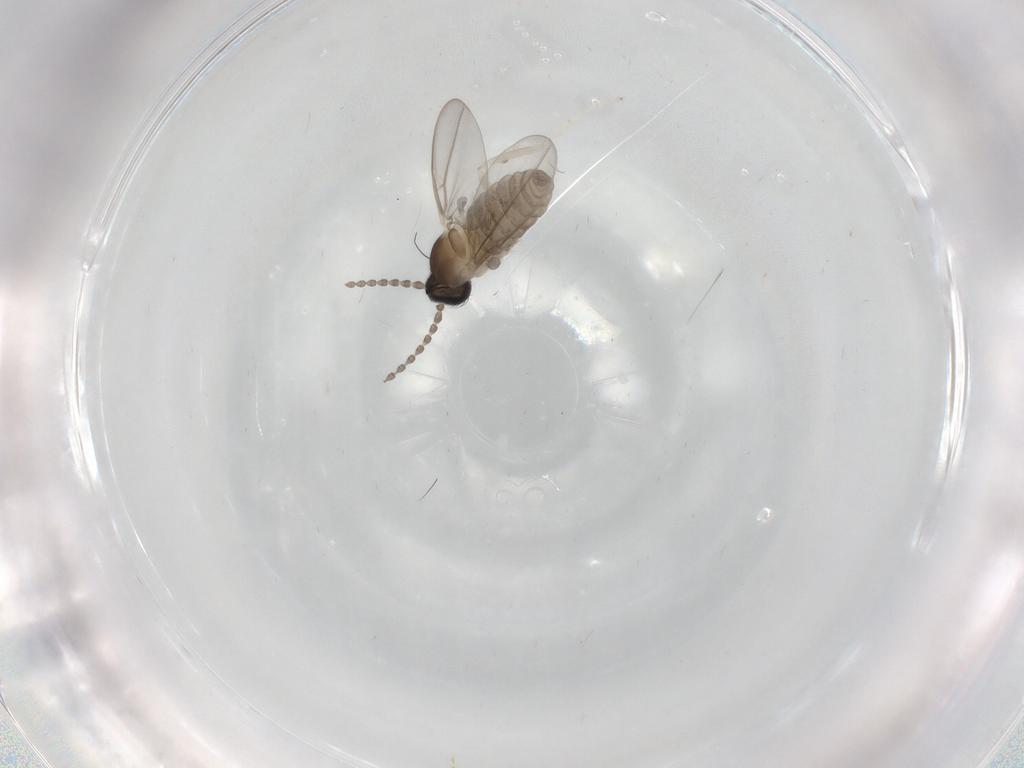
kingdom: Animalia
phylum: Arthropoda
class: Insecta
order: Diptera
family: Cecidomyiidae
